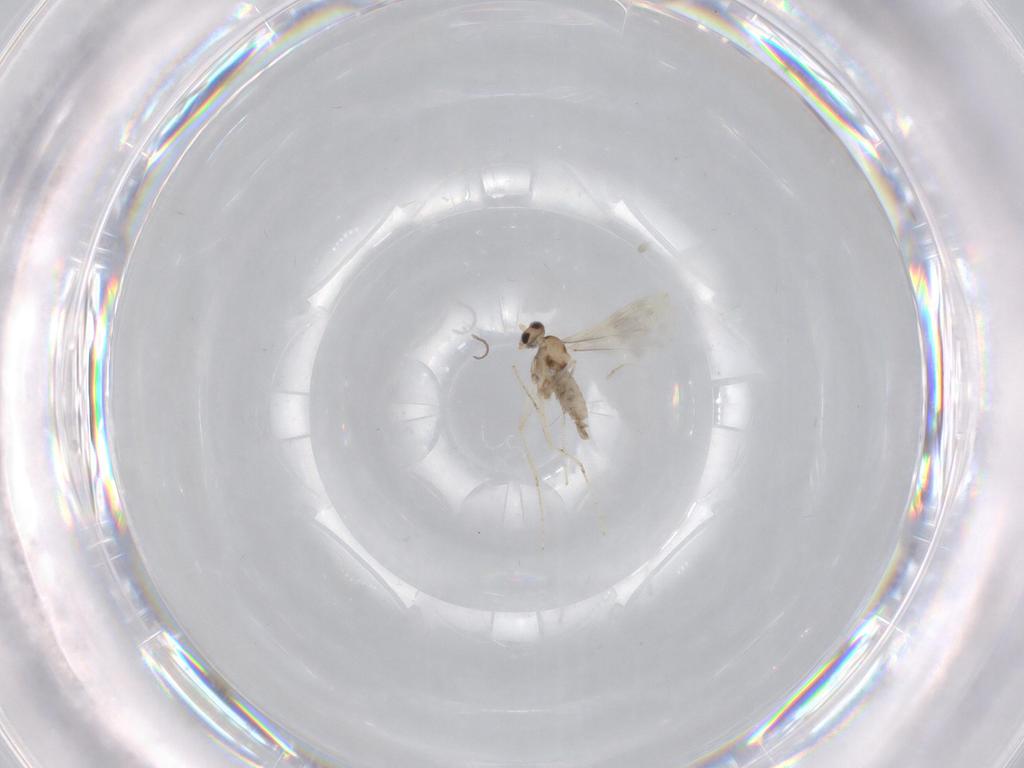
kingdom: Animalia
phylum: Arthropoda
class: Insecta
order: Diptera
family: Cecidomyiidae
